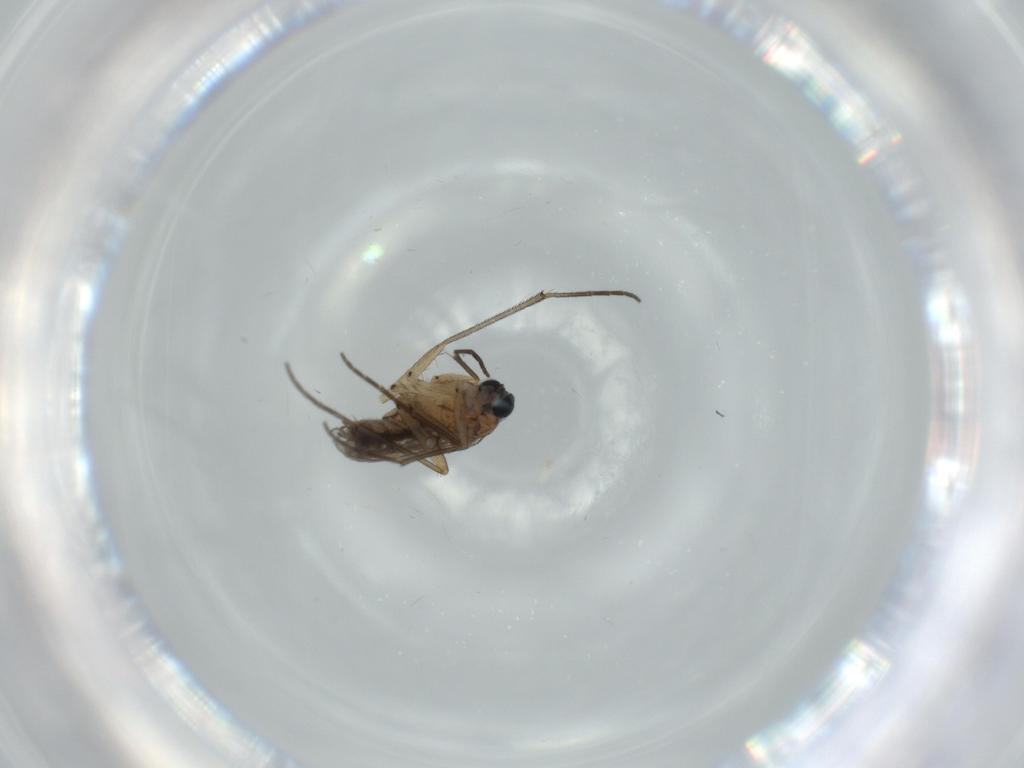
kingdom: Animalia
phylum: Arthropoda
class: Insecta
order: Diptera
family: Sciaridae
